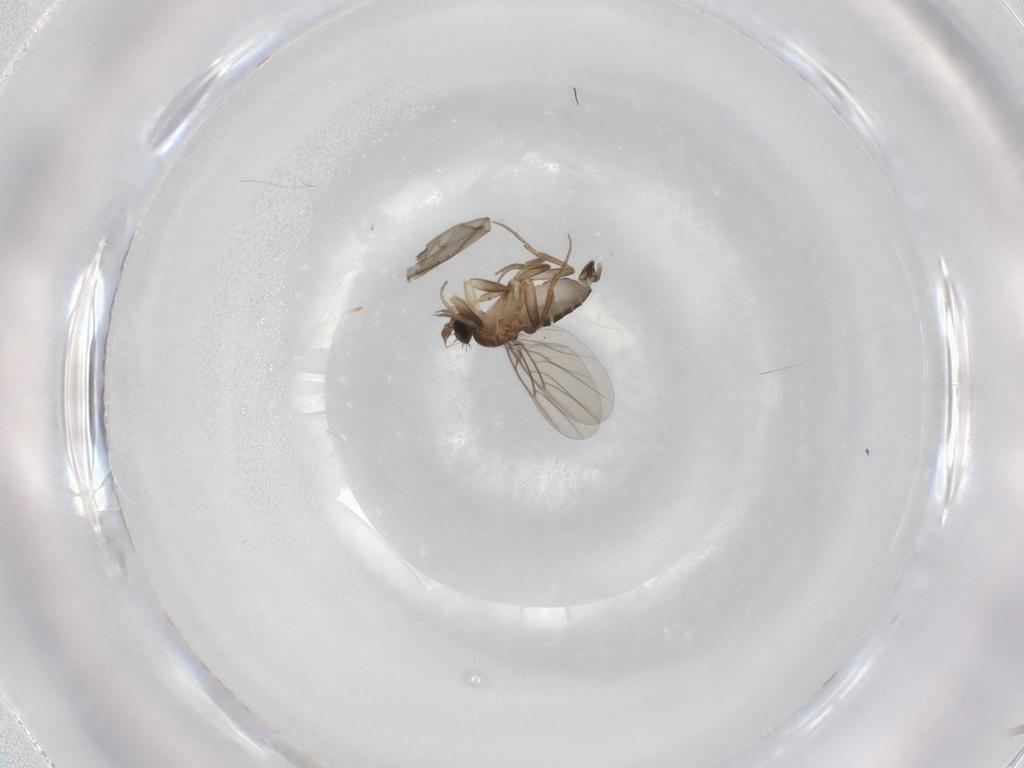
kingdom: Animalia
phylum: Arthropoda
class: Insecta
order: Diptera
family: Phoridae
